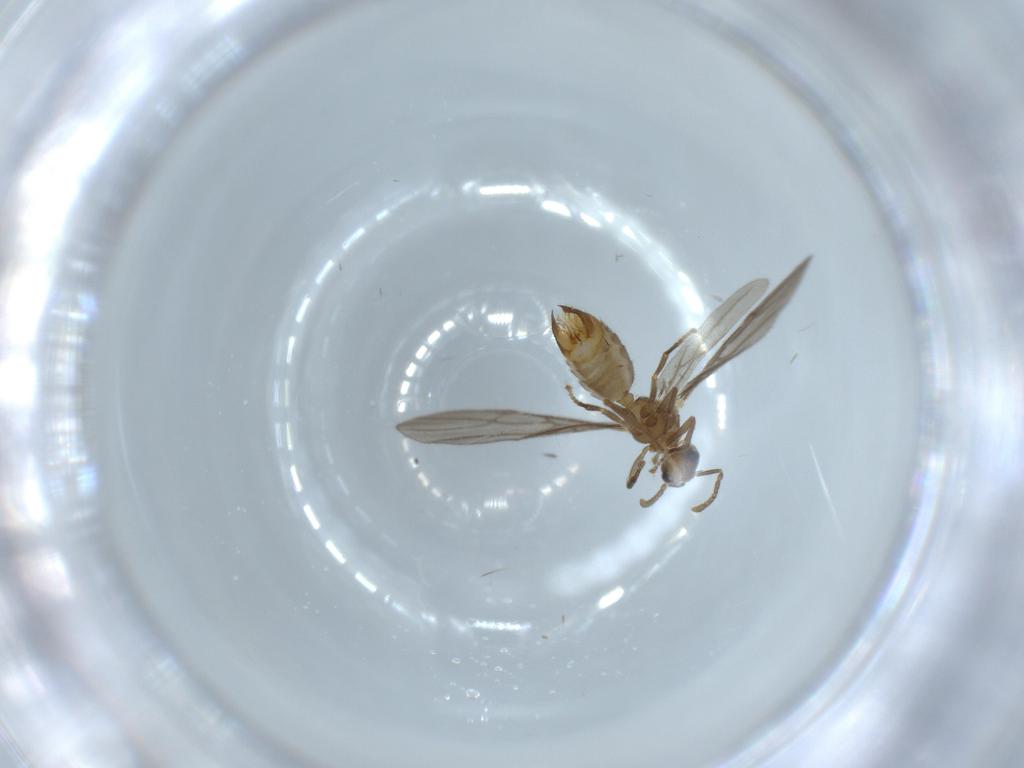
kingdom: Animalia
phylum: Arthropoda
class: Insecta
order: Hymenoptera
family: Formicidae
